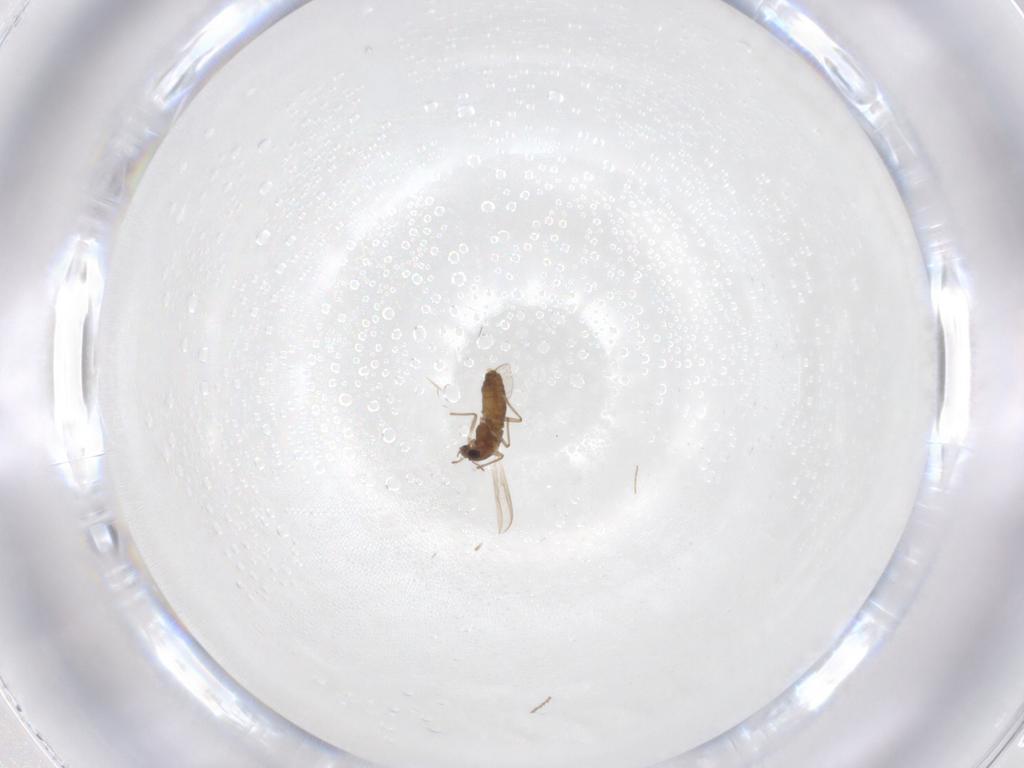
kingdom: Animalia
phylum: Arthropoda
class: Insecta
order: Diptera
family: Chironomidae
